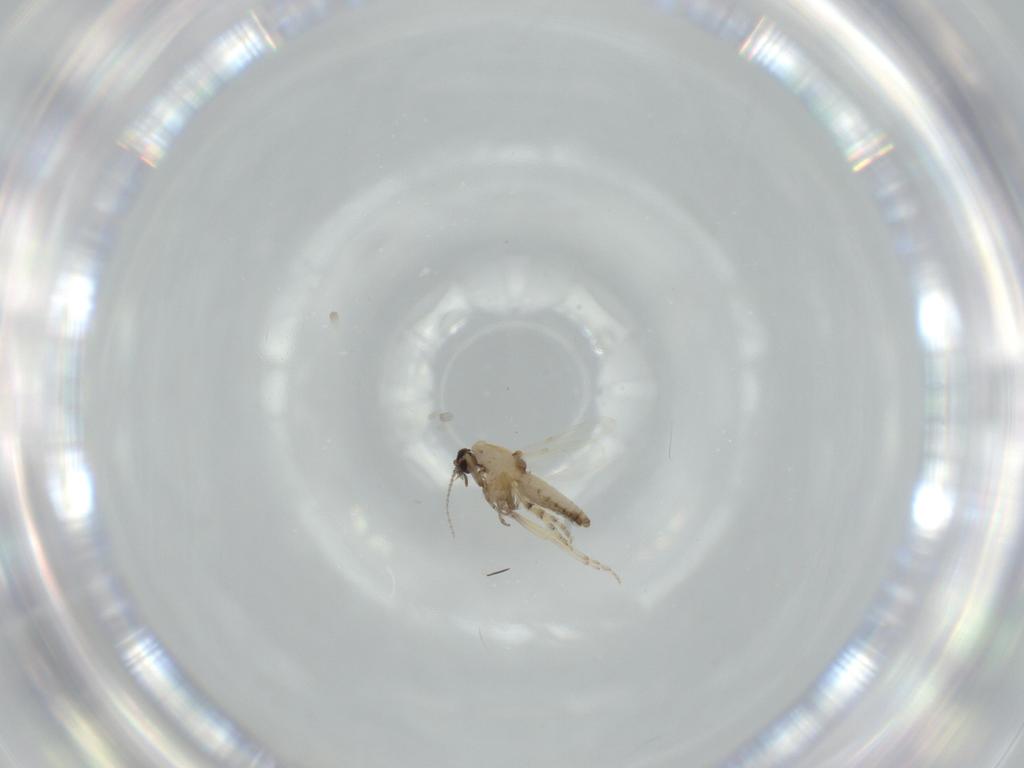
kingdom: Animalia
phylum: Arthropoda
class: Insecta
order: Diptera
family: Ceratopogonidae
